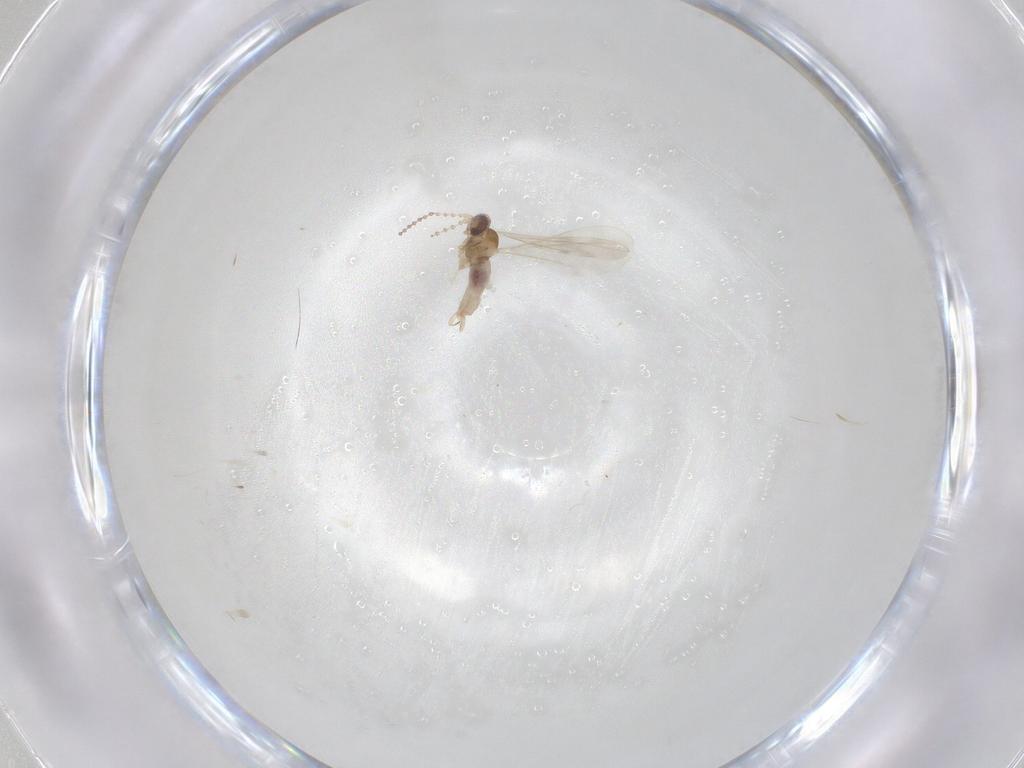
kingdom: Animalia
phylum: Arthropoda
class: Insecta
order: Diptera
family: Cecidomyiidae
